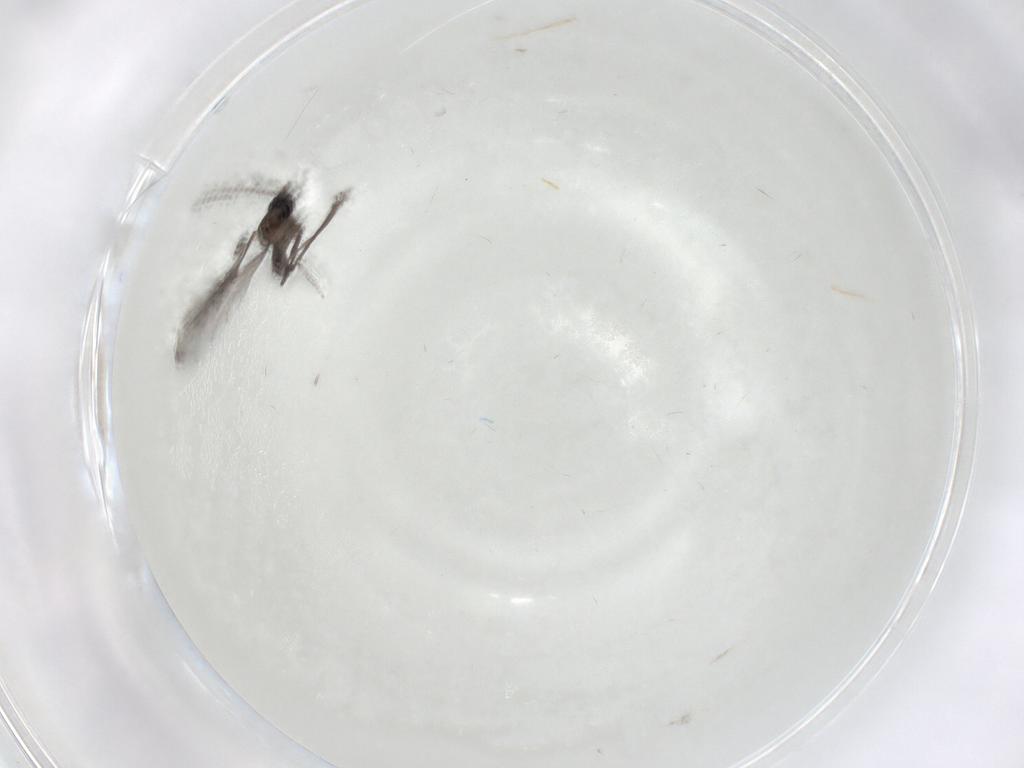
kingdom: Animalia
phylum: Arthropoda
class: Insecta
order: Diptera
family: Sciaridae
